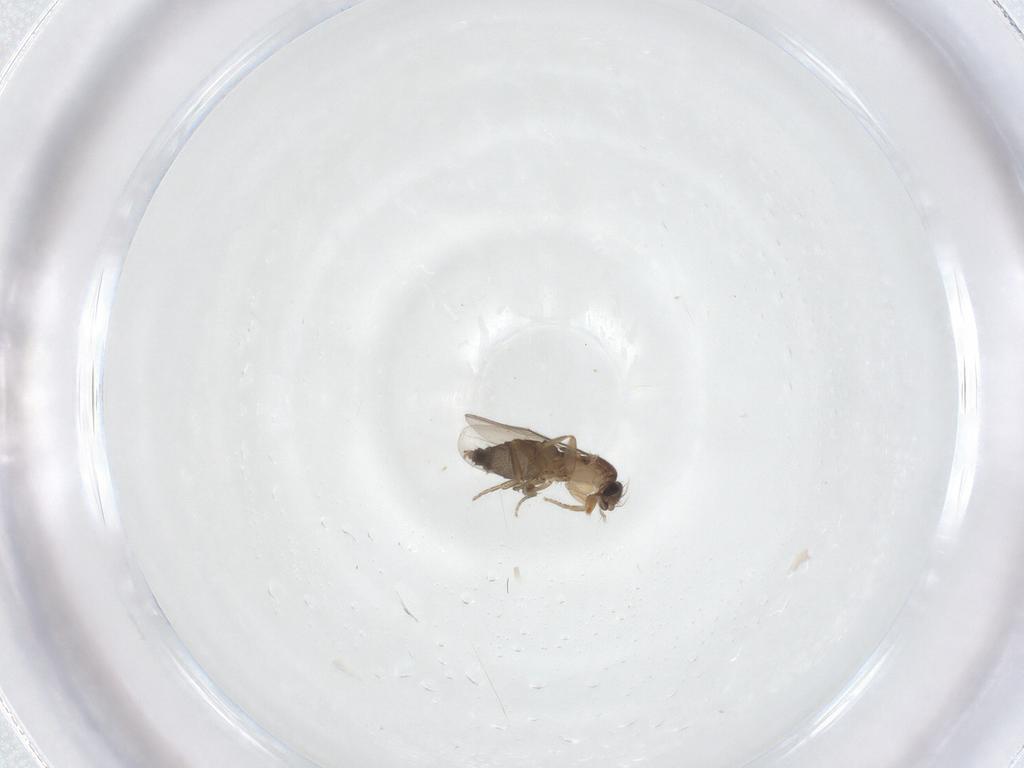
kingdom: Animalia
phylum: Arthropoda
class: Insecta
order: Diptera
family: Phoridae
